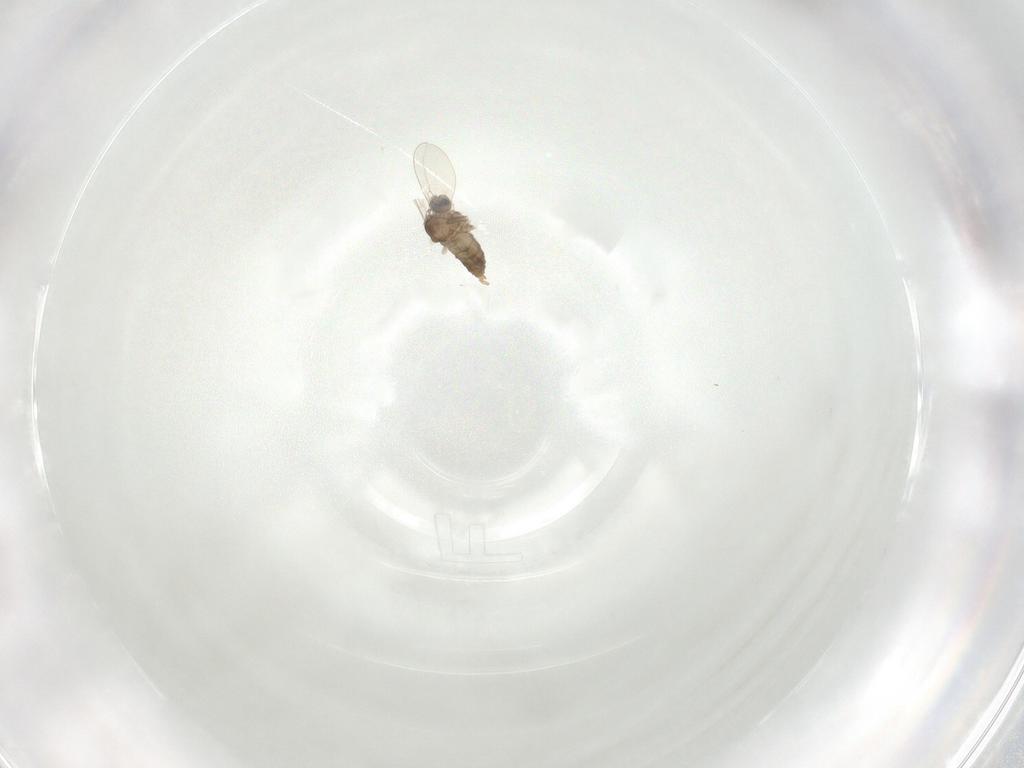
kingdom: Animalia
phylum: Arthropoda
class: Insecta
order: Diptera
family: Cecidomyiidae
